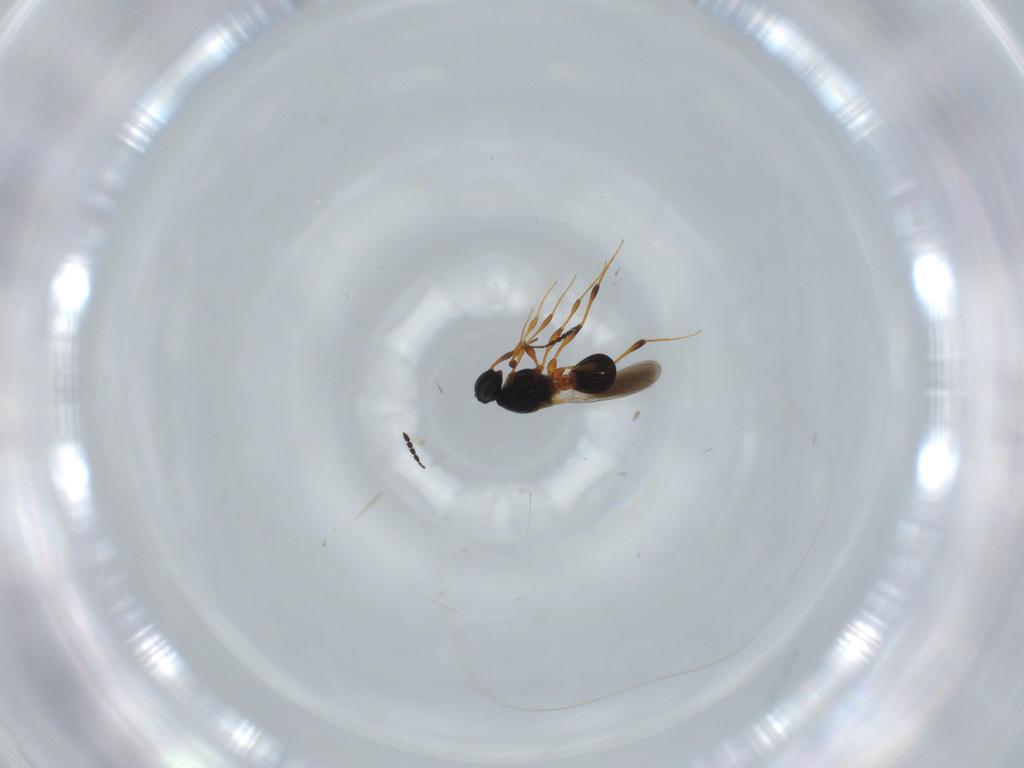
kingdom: Animalia
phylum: Arthropoda
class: Insecta
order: Hymenoptera
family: Platygastridae
